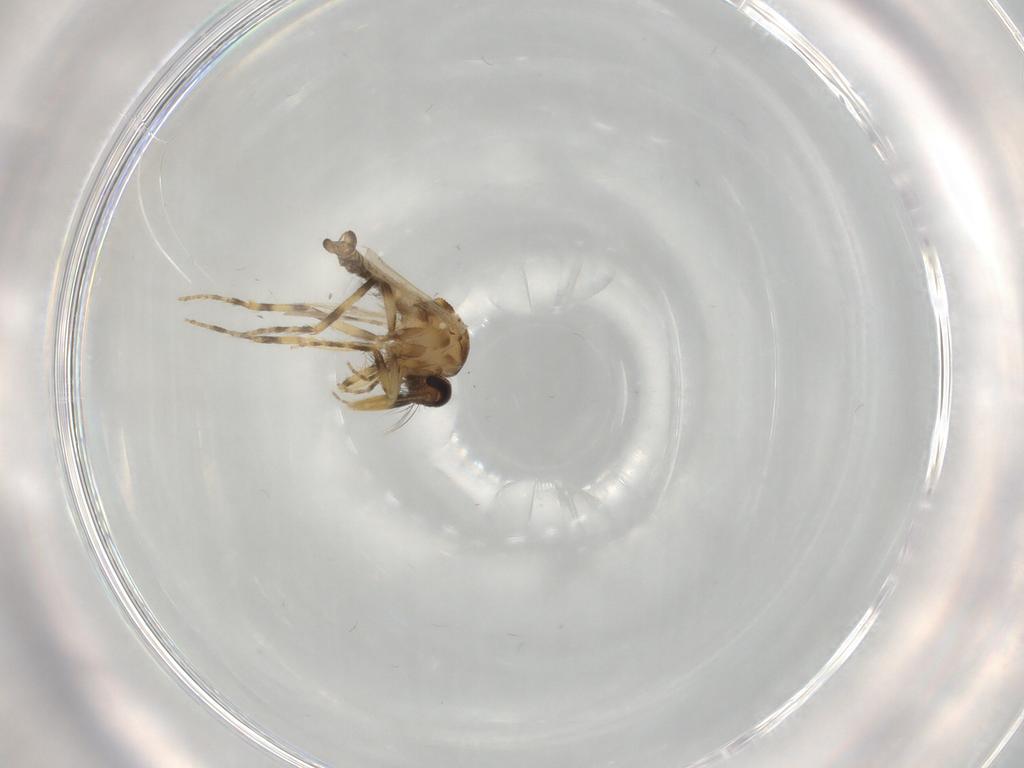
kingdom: Animalia
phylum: Arthropoda
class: Insecta
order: Diptera
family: Ceratopogonidae
